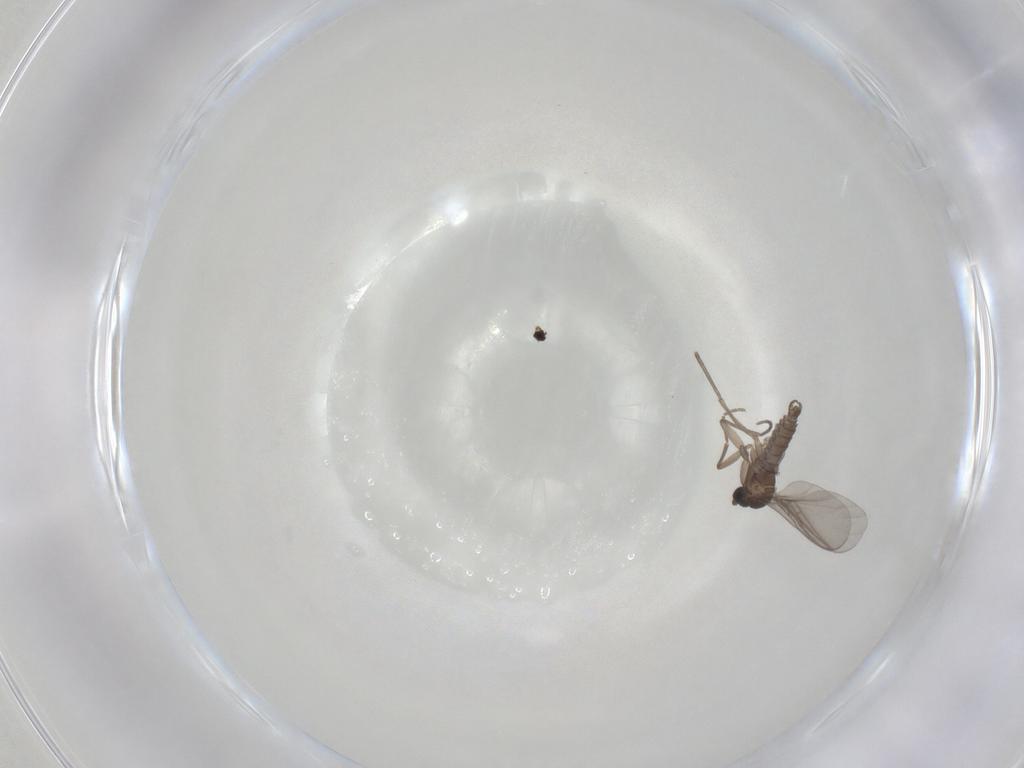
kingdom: Animalia
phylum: Arthropoda
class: Insecta
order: Diptera
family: Sciaridae
